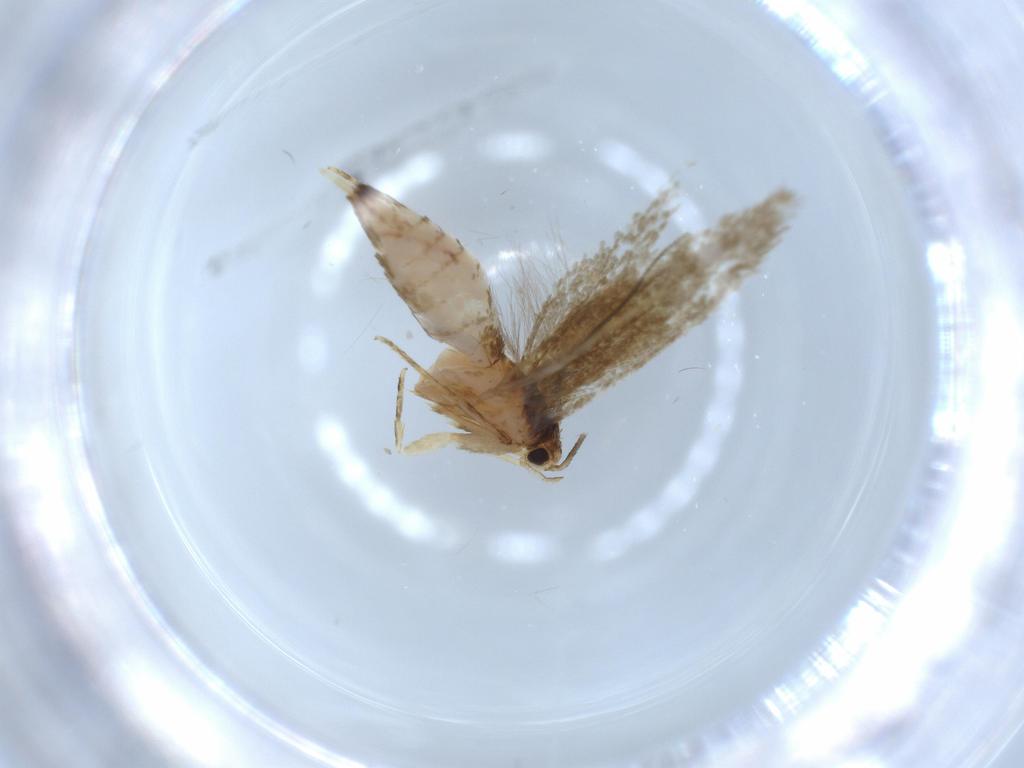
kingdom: Animalia
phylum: Arthropoda
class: Insecta
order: Lepidoptera
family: Tineidae
